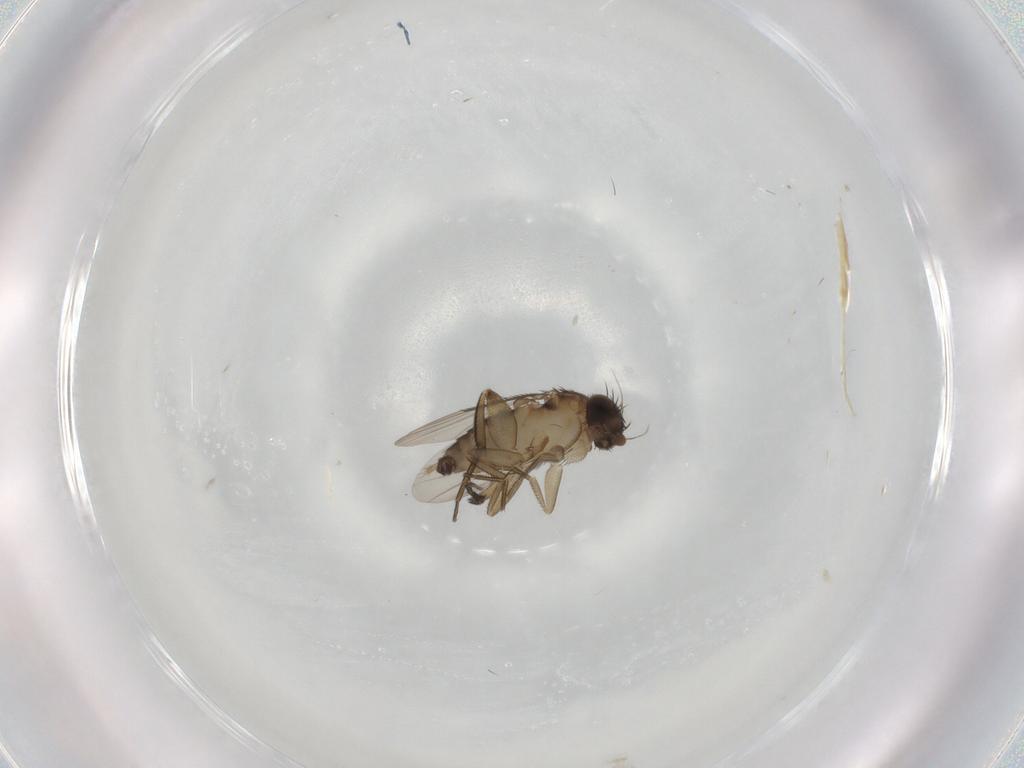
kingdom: Animalia
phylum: Arthropoda
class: Insecta
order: Diptera
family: Phoridae
